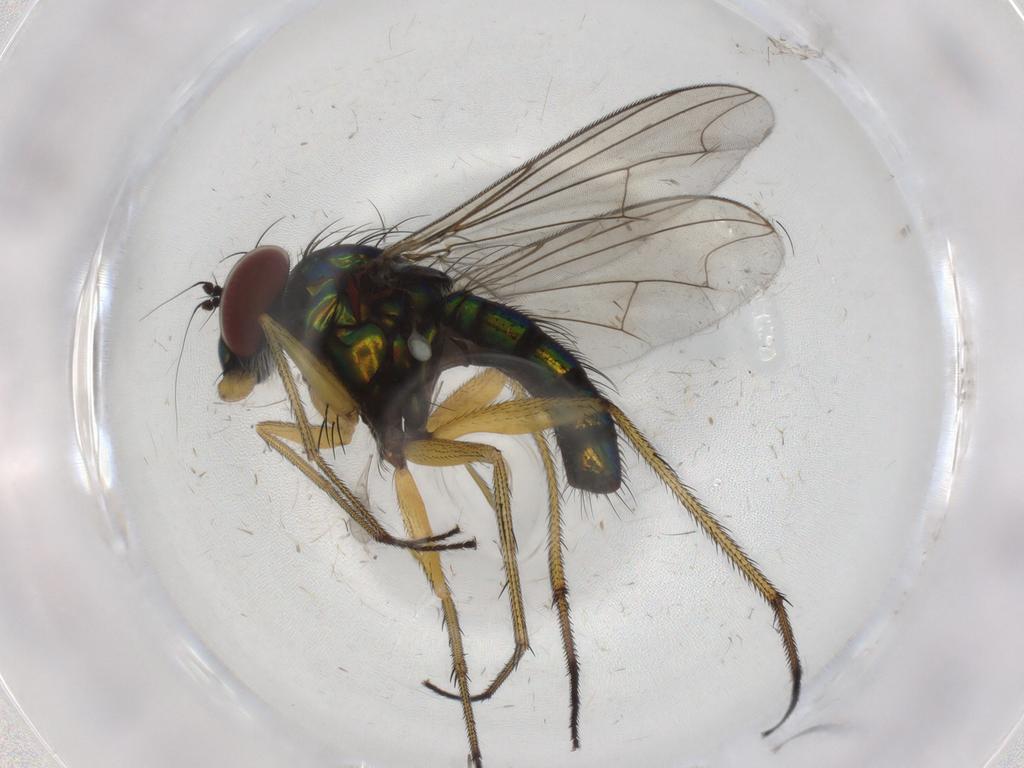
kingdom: Animalia
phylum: Arthropoda
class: Insecta
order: Diptera
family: Dolichopodidae
